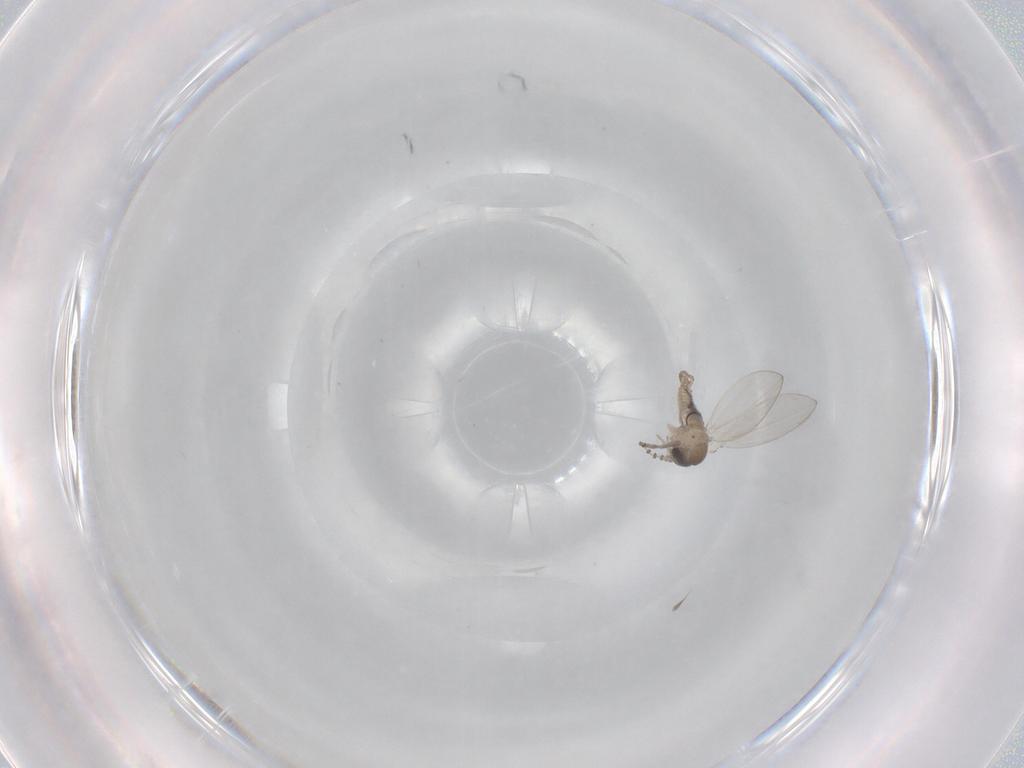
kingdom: Animalia
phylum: Arthropoda
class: Insecta
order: Diptera
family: Psychodidae
